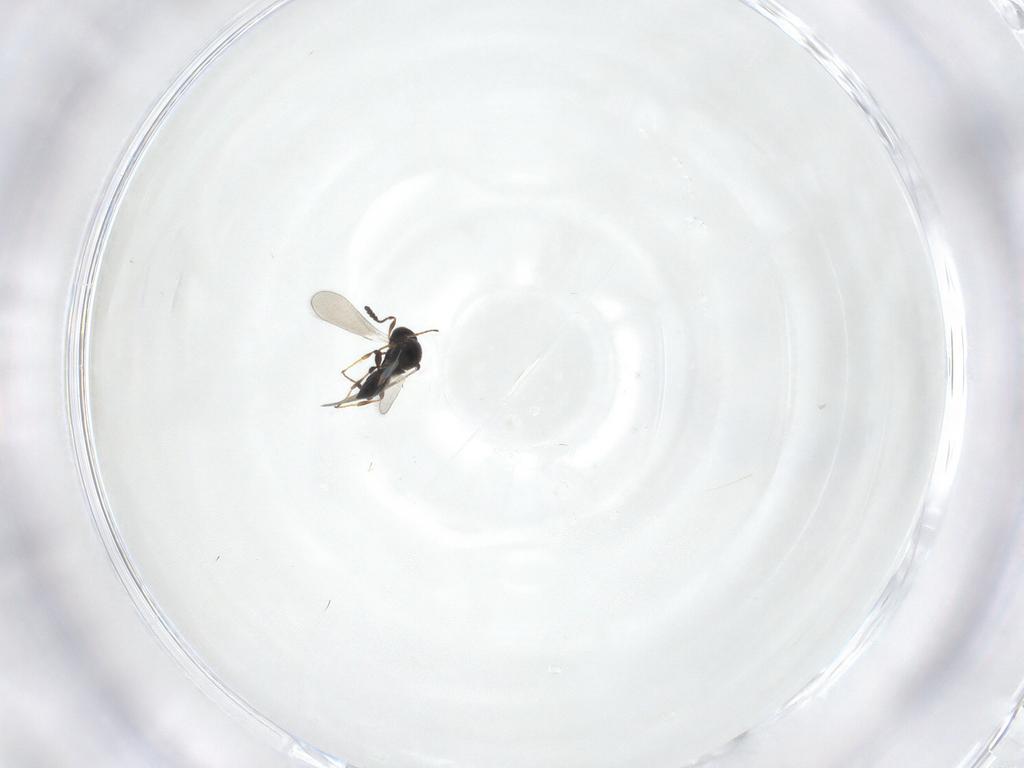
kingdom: Animalia
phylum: Arthropoda
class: Insecta
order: Hymenoptera
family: Platygastridae
